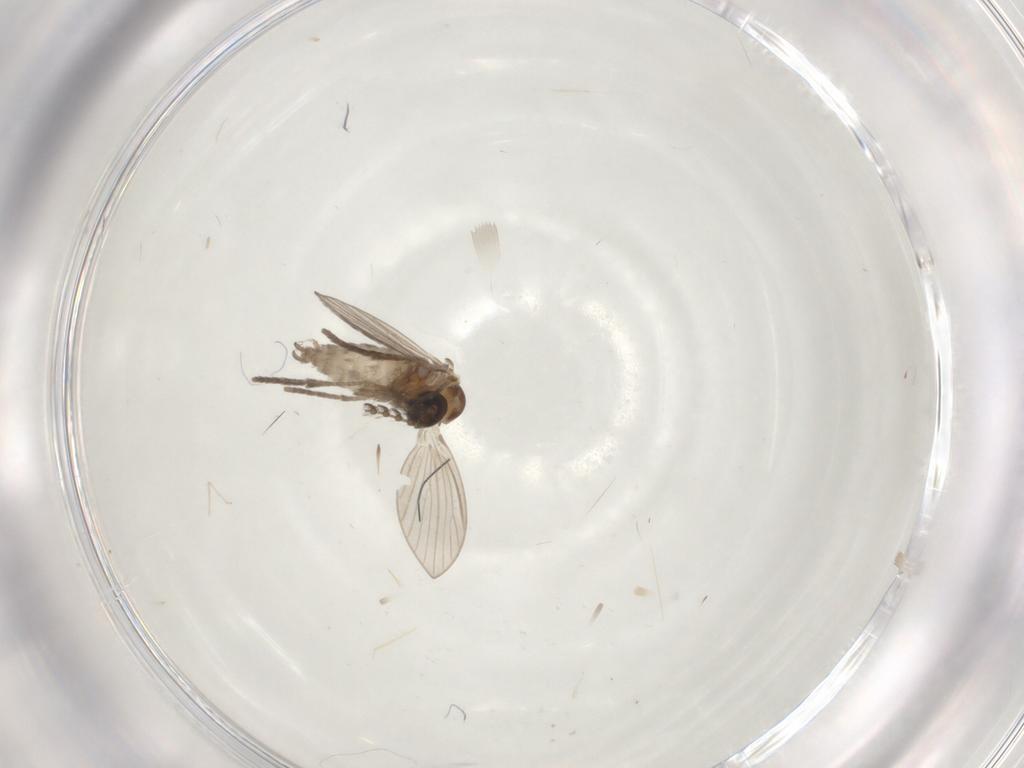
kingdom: Animalia
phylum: Arthropoda
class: Insecta
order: Diptera
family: Cecidomyiidae
